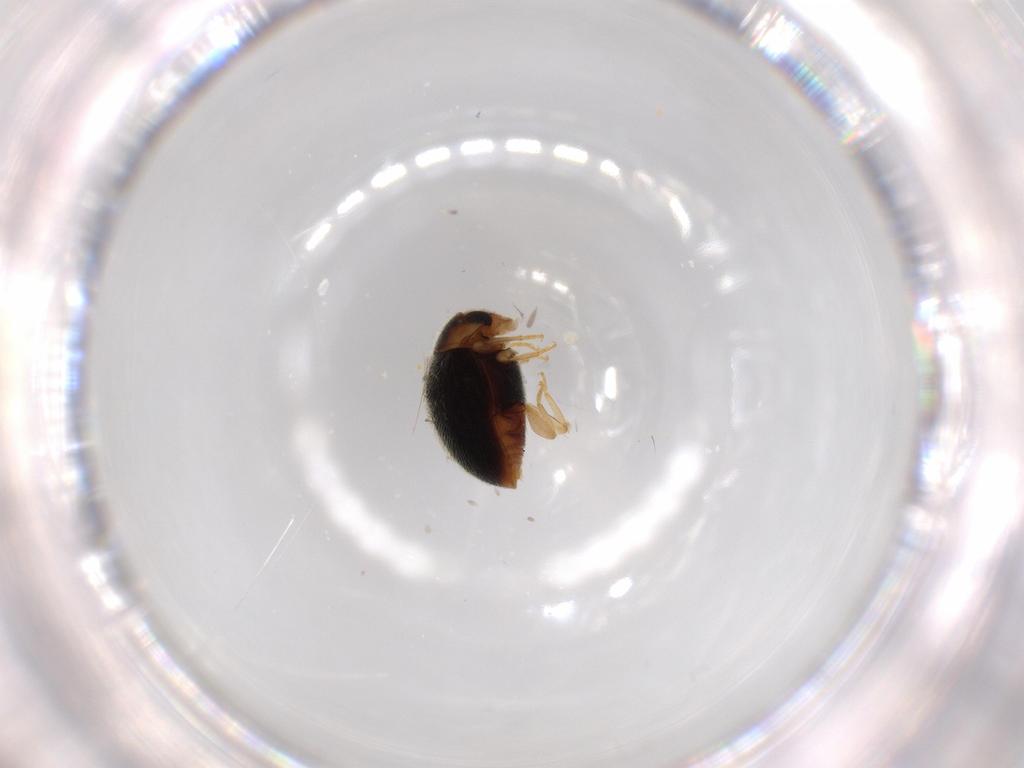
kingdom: Animalia
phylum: Arthropoda
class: Insecta
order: Coleoptera
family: Coccinellidae
